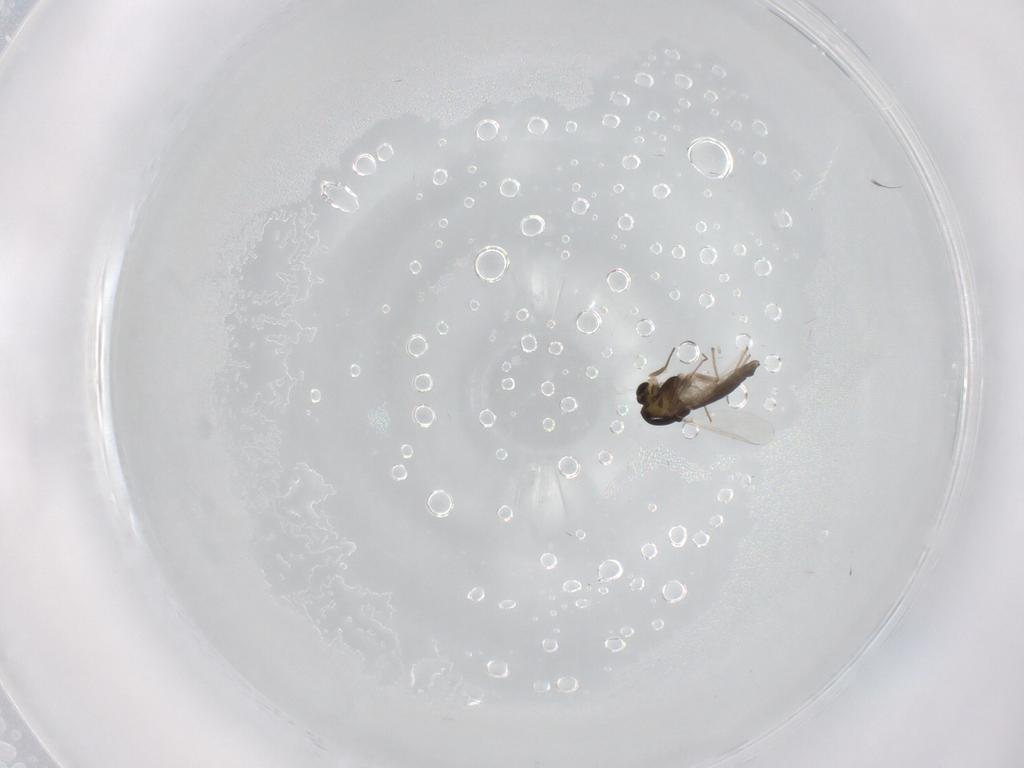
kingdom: Animalia
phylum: Arthropoda
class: Insecta
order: Diptera
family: Chironomidae
